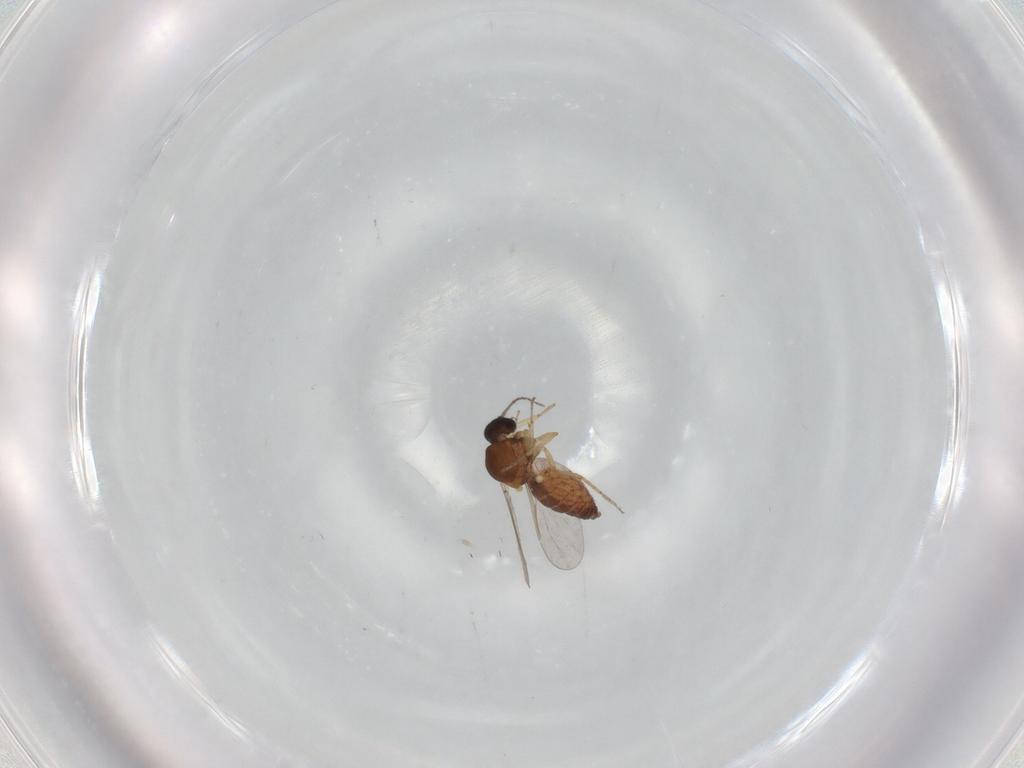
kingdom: Animalia
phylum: Arthropoda
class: Insecta
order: Diptera
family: Ceratopogonidae
